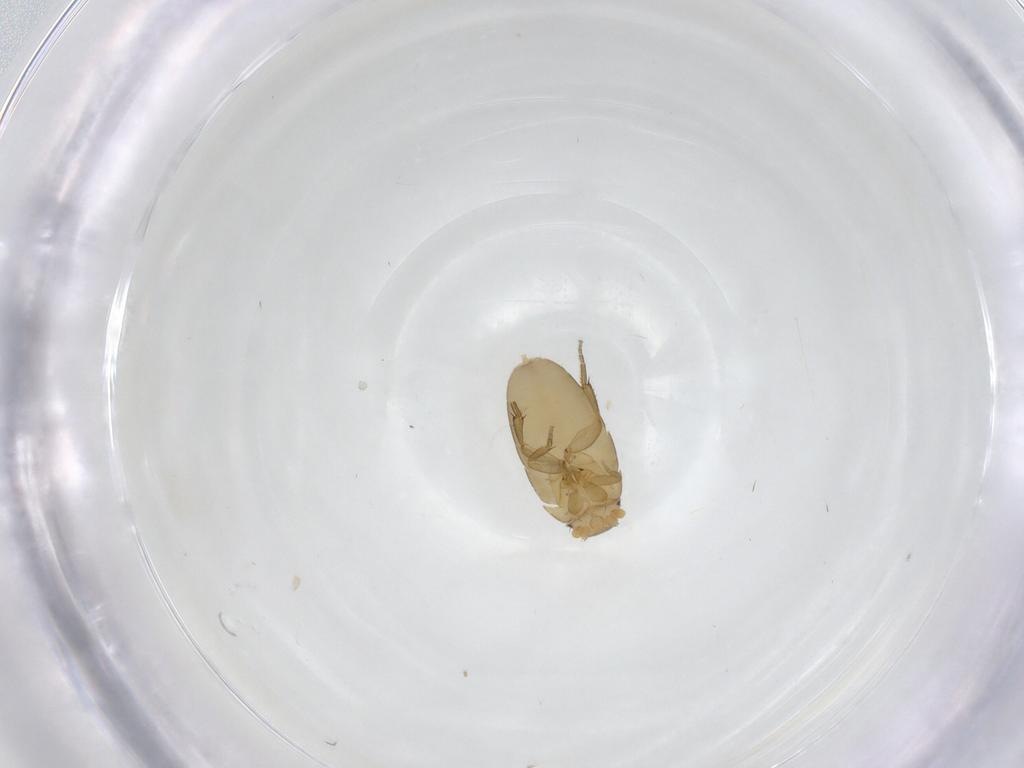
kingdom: Animalia
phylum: Arthropoda
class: Insecta
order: Diptera
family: Phoridae
